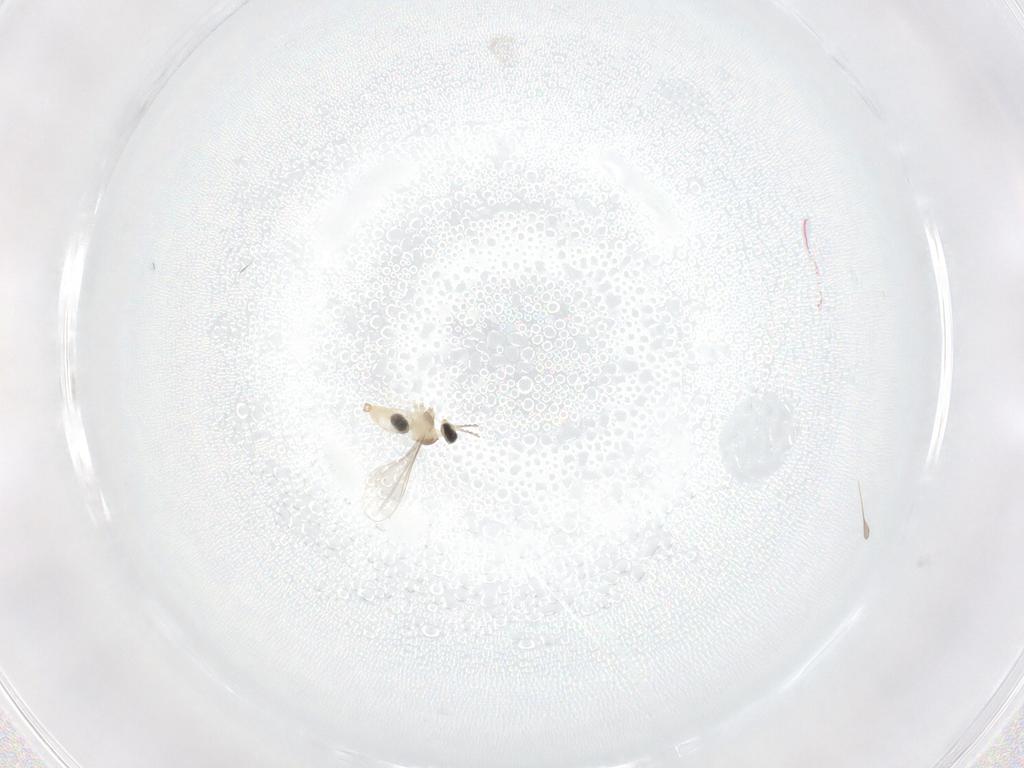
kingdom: Animalia
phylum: Arthropoda
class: Insecta
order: Diptera
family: Cecidomyiidae
